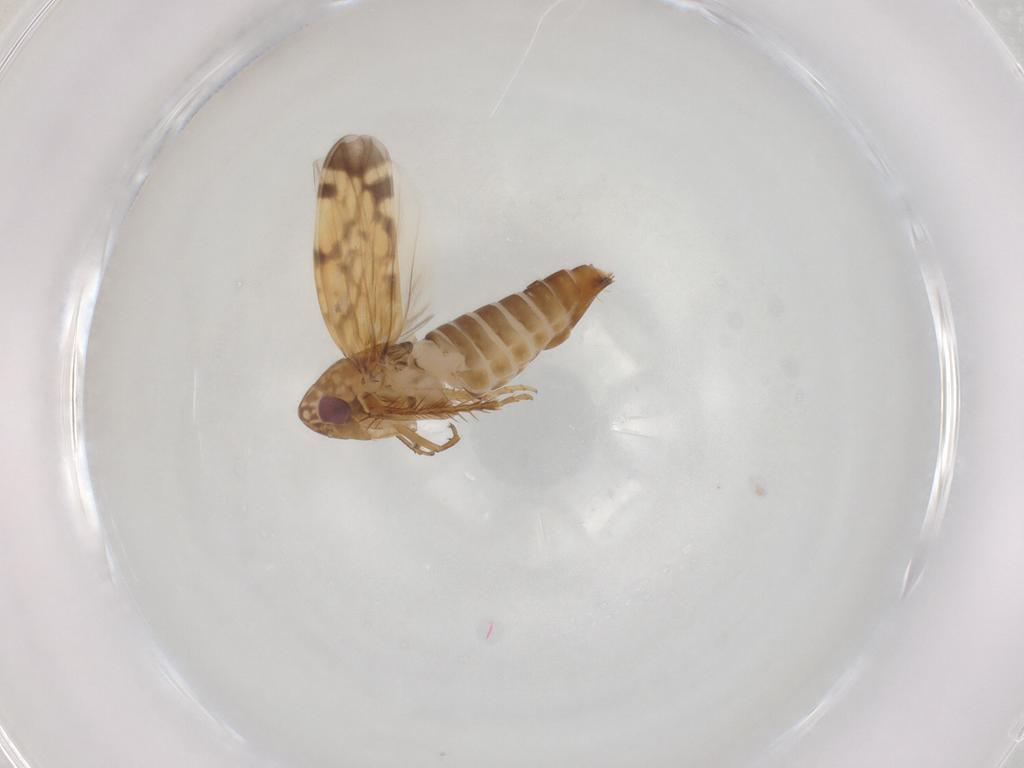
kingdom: Animalia
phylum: Arthropoda
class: Insecta
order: Hemiptera
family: Cicadellidae
